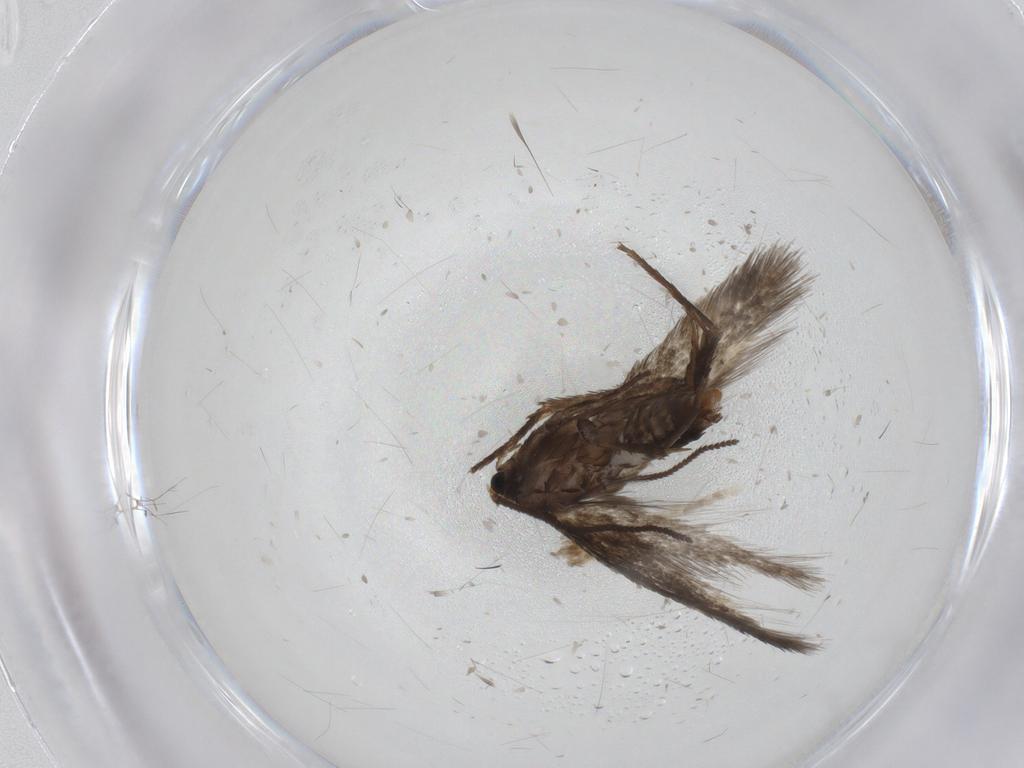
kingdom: Animalia
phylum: Arthropoda
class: Insecta
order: Lepidoptera
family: Nepticulidae
